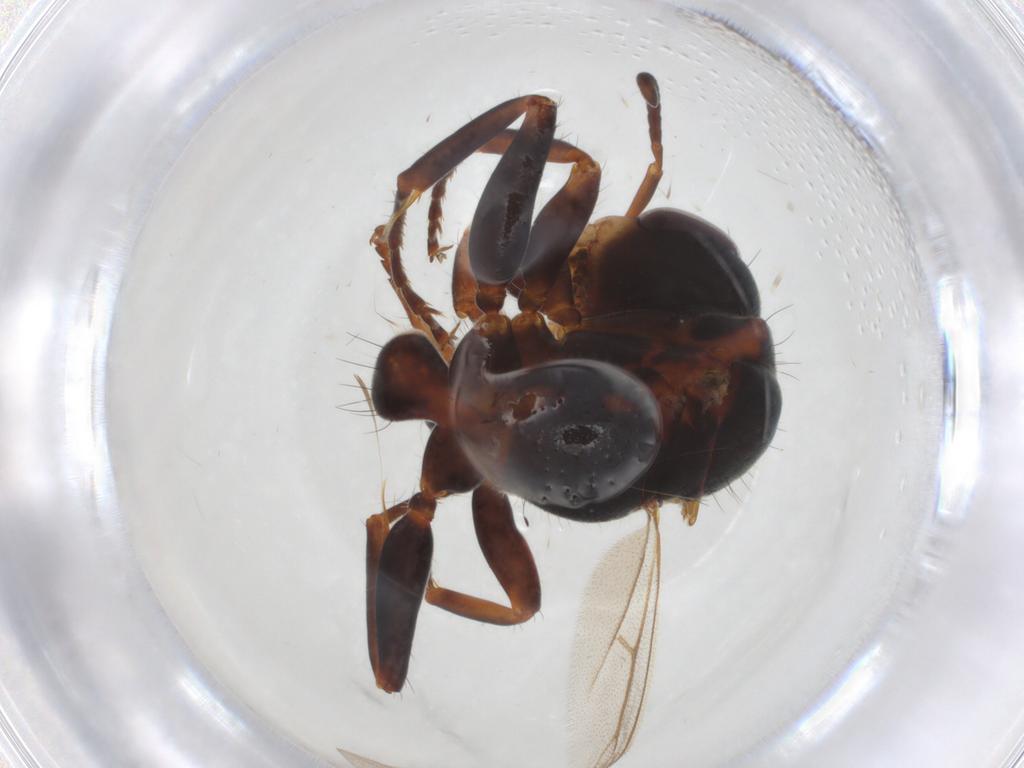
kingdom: Animalia
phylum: Arthropoda
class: Insecta
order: Hymenoptera
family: Formicidae
